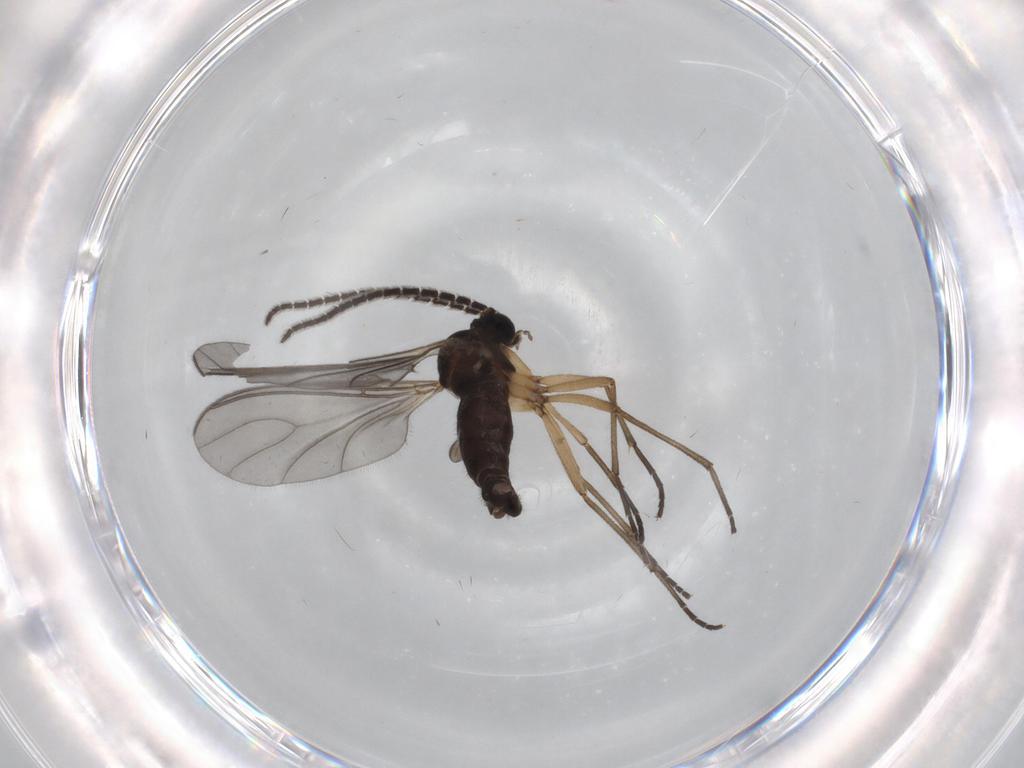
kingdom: Animalia
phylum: Arthropoda
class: Insecta
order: Diptera
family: Sciaridae
